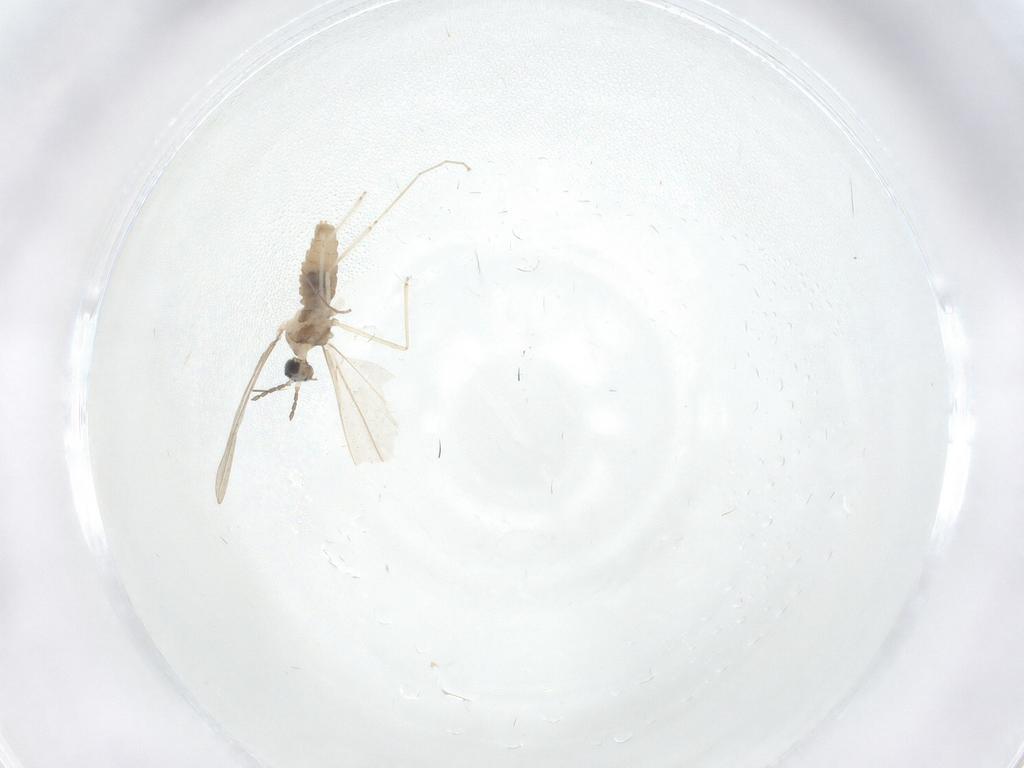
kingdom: Animalia
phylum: Arthropoda
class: Insecta
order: Diptera
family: Chironomidae
